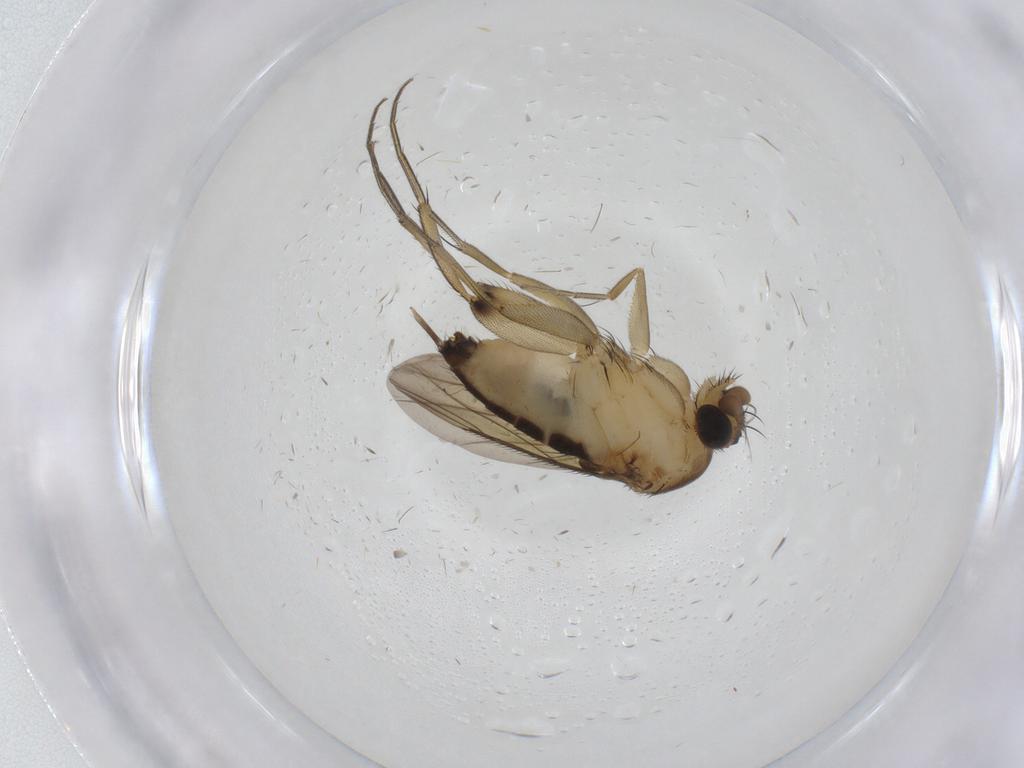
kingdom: Animalia
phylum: Arthropoda
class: Insecta
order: Diptera
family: Phoridae
